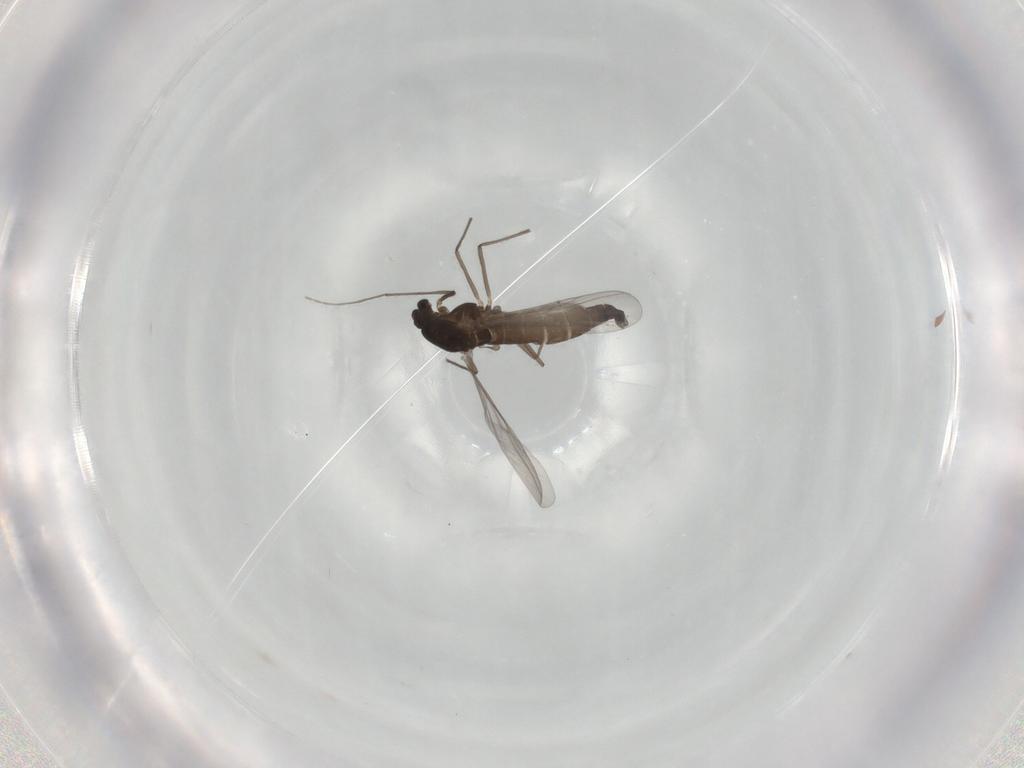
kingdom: Animalia
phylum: Arthropoda
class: Insecta
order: Diptera
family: Chironomidae
